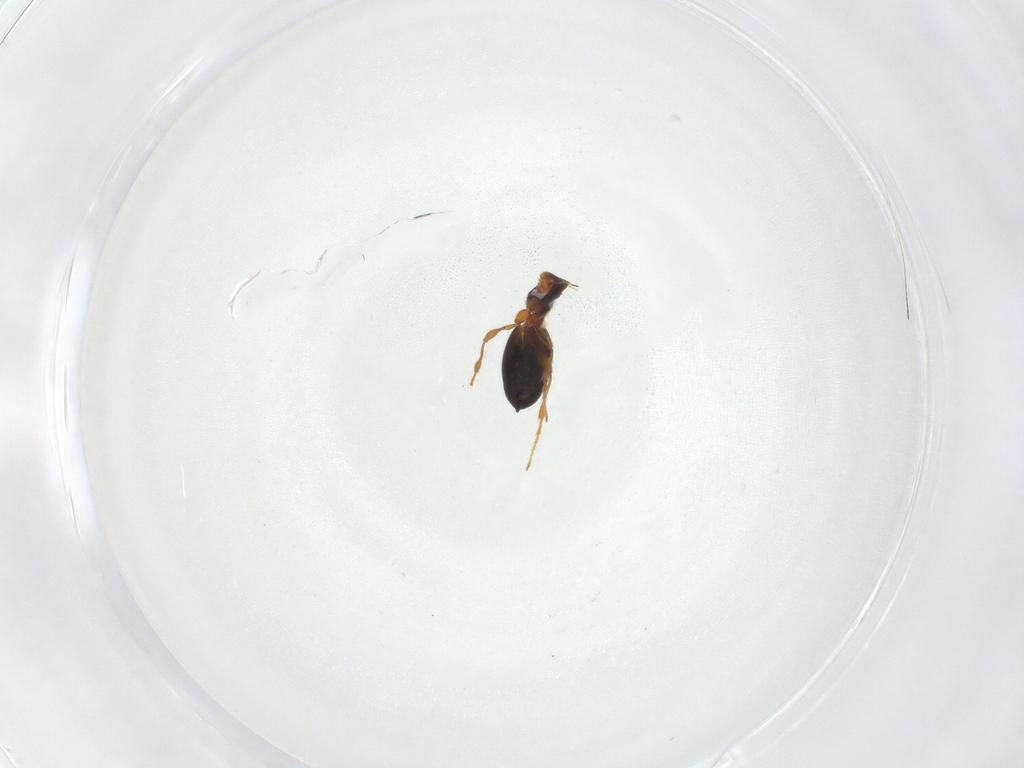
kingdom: Animalia
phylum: Arthropoda
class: Insecta
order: Hymenoptera
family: Diapriidae
